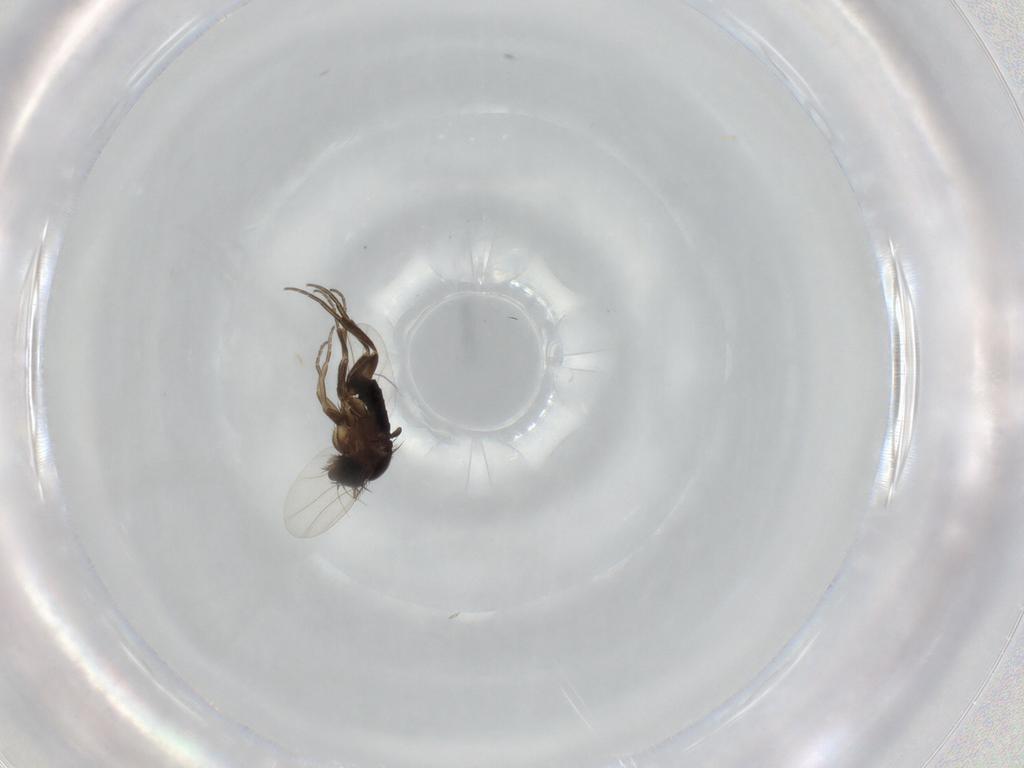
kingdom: Animalia
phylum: Arthropoda
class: Insecta
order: Diptera
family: Phoridae
